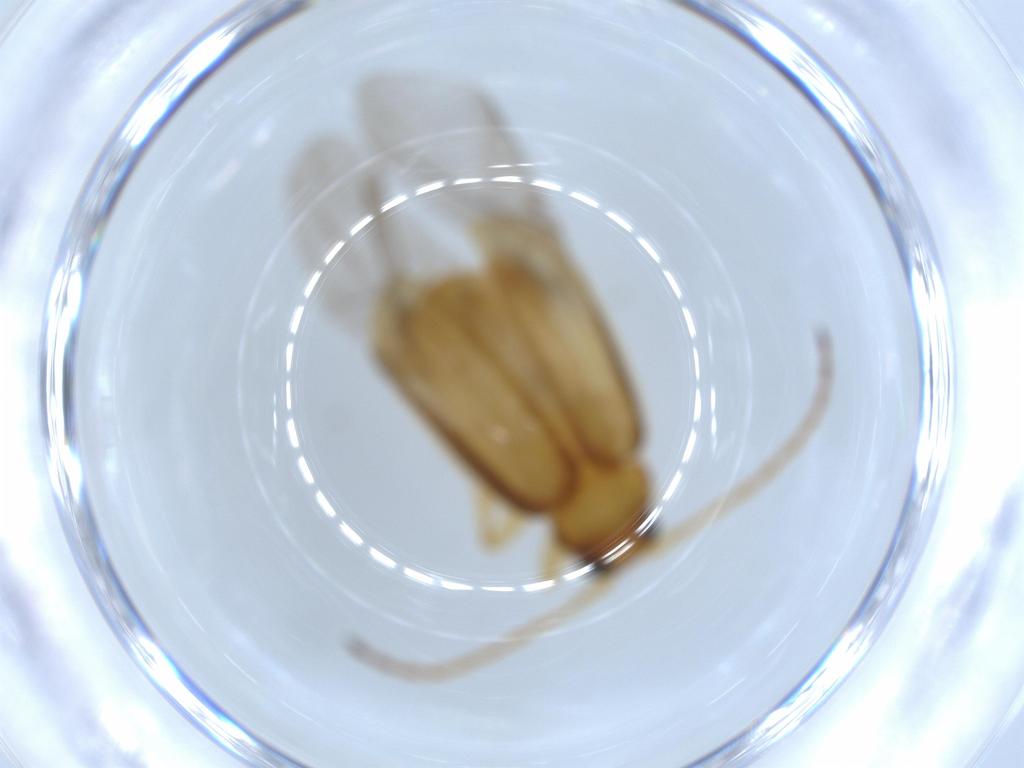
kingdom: Animalia
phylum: Arthropoda
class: Insecta
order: Coleoptera
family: Chrysomelidae
